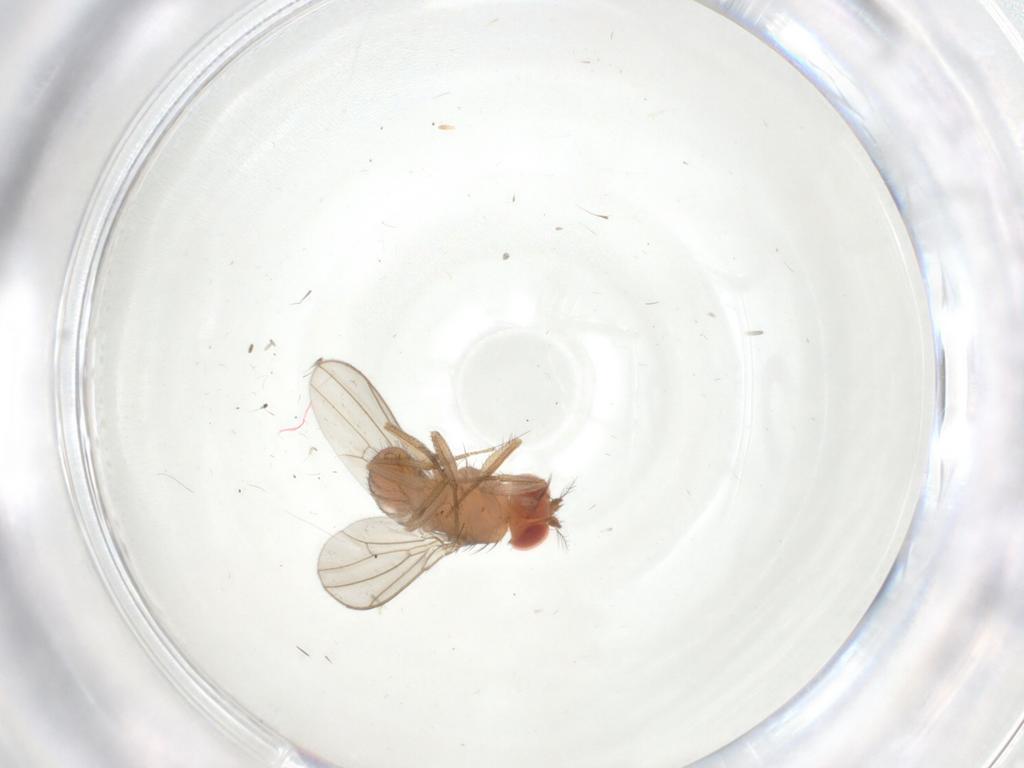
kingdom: Animalia
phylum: Arthropoda
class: Insecta
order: Diptera
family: Drosophilidae
